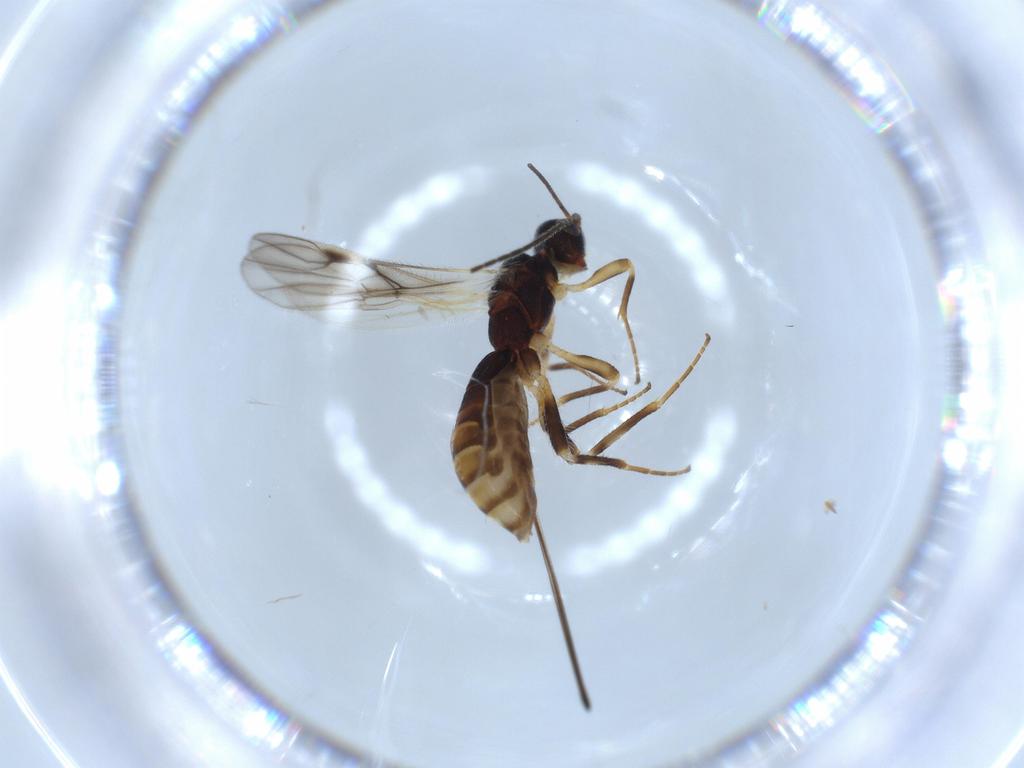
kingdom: Animalia
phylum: Arthropoda
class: Insecta
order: Hymenoptera
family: Braconidae
